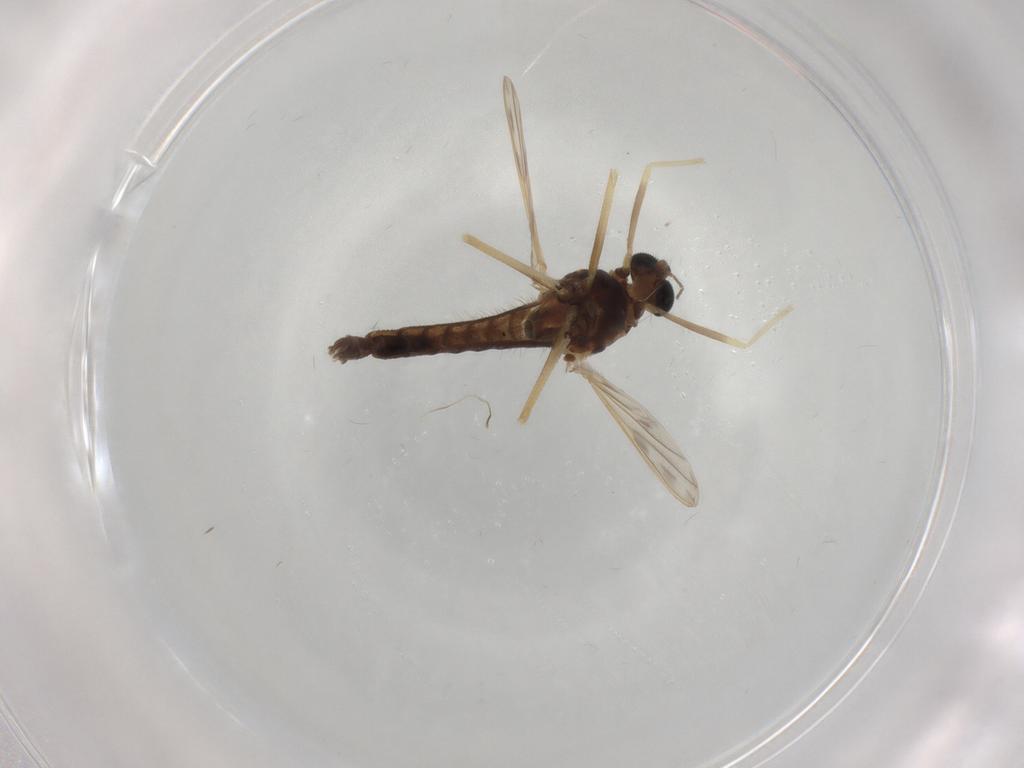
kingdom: Animalia
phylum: Arthropoda
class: Insecta
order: Diptera
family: Chironomidae
